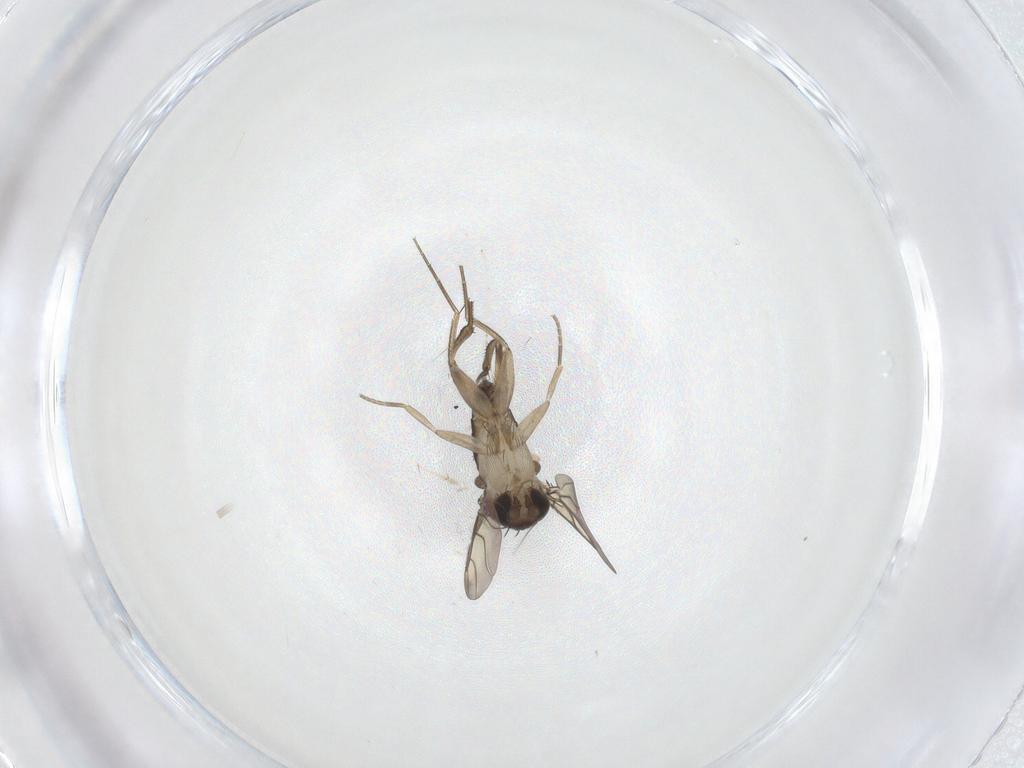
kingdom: Animalia
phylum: Arthropoda
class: Insecta
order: Diptera
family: Phoridae
